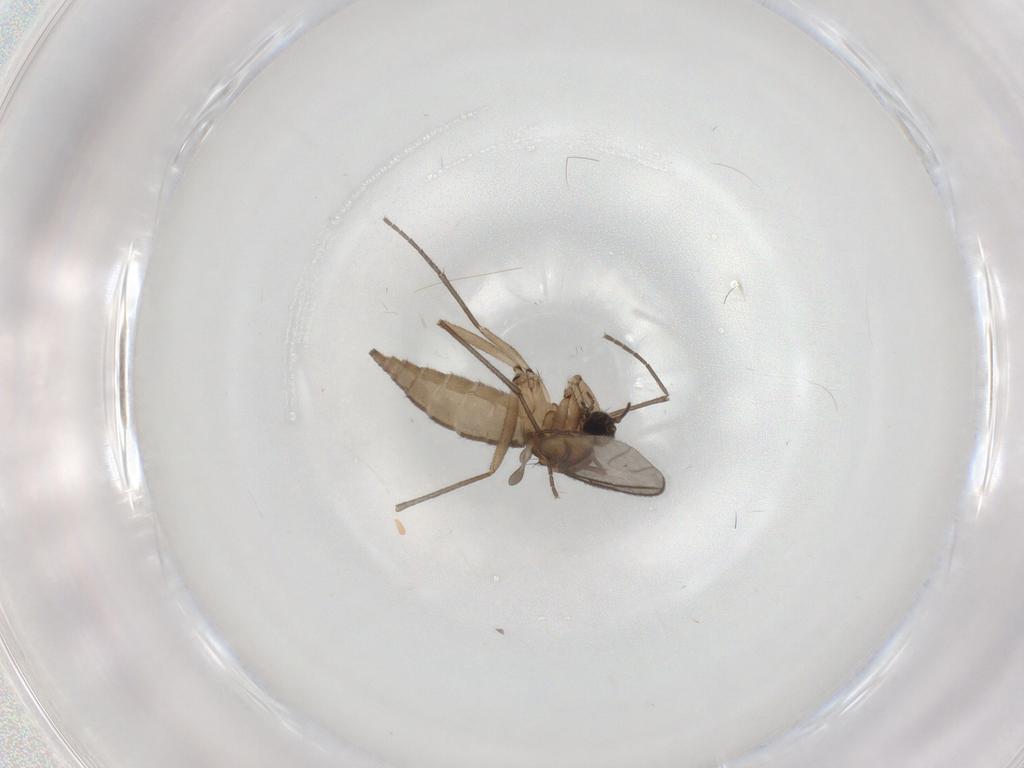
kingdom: Animalia
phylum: Arthropoda
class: Insecta
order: Diptera
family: Sciaridae
